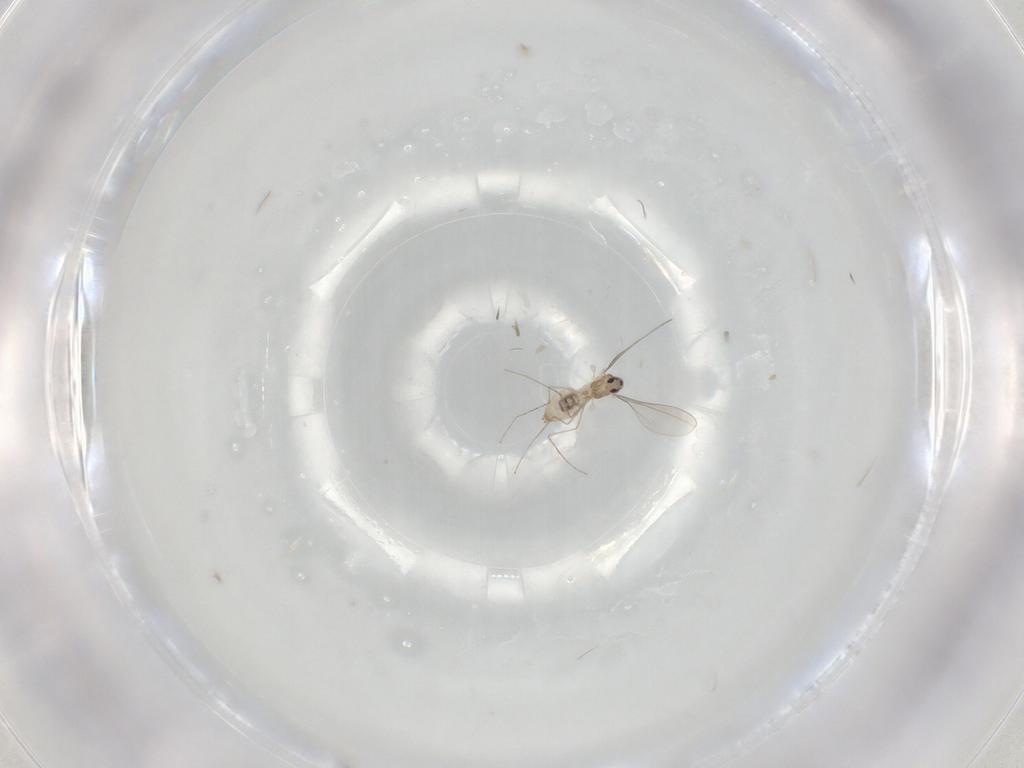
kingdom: Animalia
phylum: Arthropoda
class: Insecta
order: Diptera
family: Cecidomyiidae
